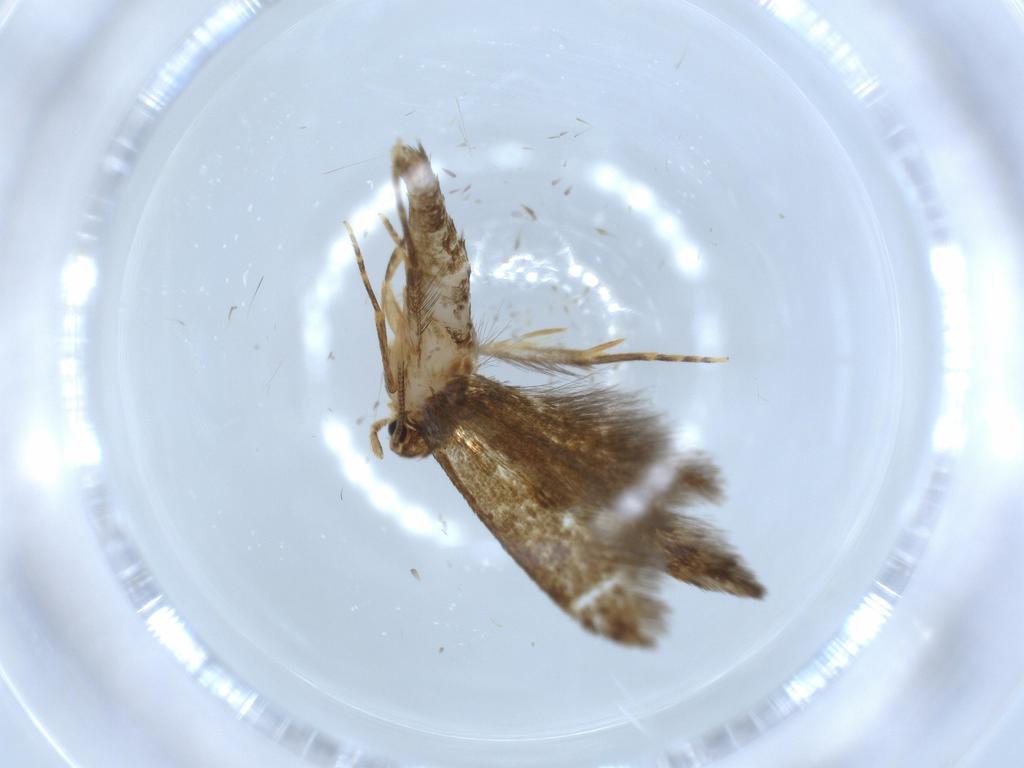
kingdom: Animalia
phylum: Arthropoda
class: Insecta
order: Lepidoptera
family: Tineidae
